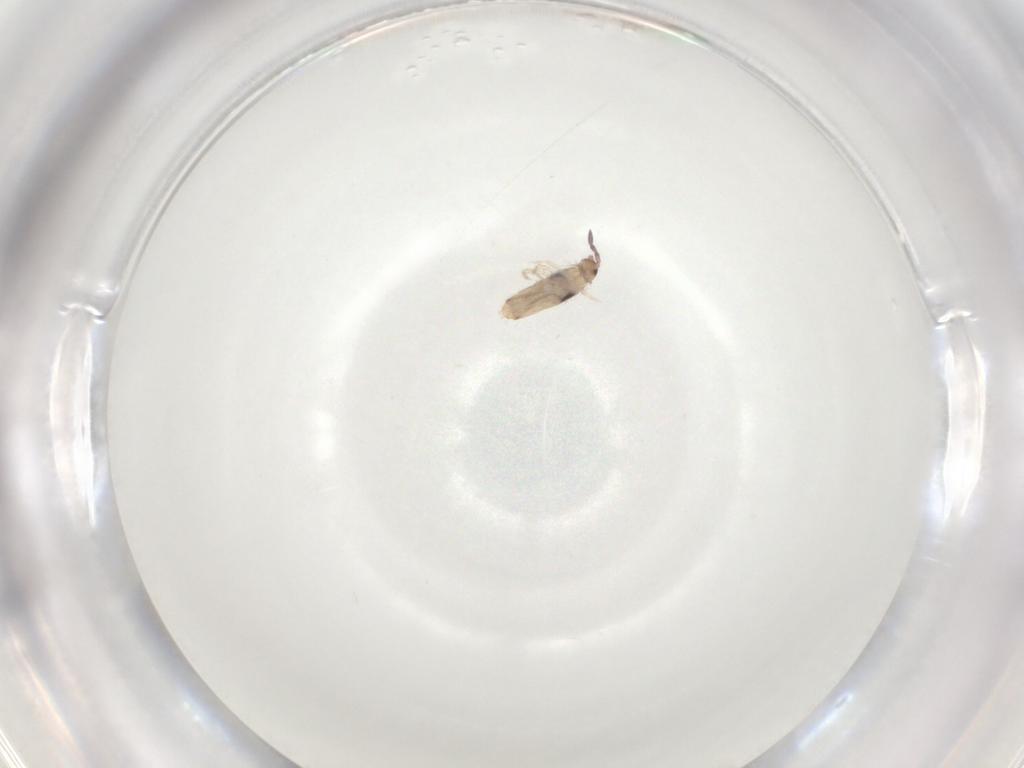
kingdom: Animalia
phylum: Arthropoda
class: Collembola
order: Entomobryomorpha
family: Entomobryidae
